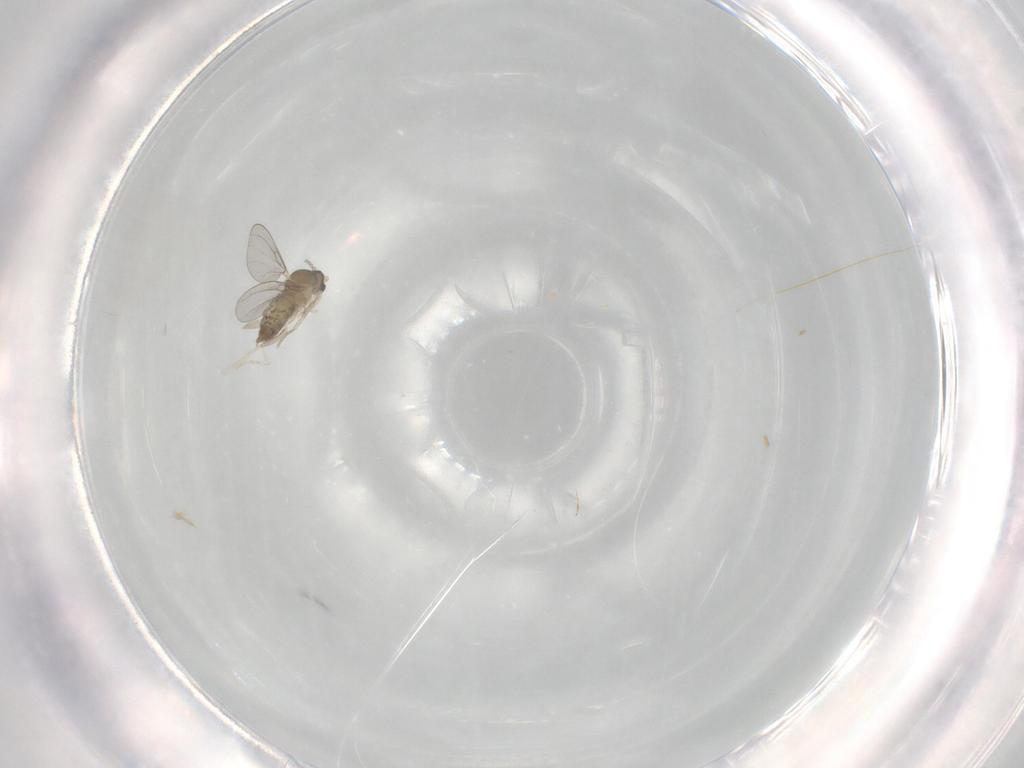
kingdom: Animalia
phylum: Arthropoda
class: Insecta
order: Diptera
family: Cecidomyiidae
